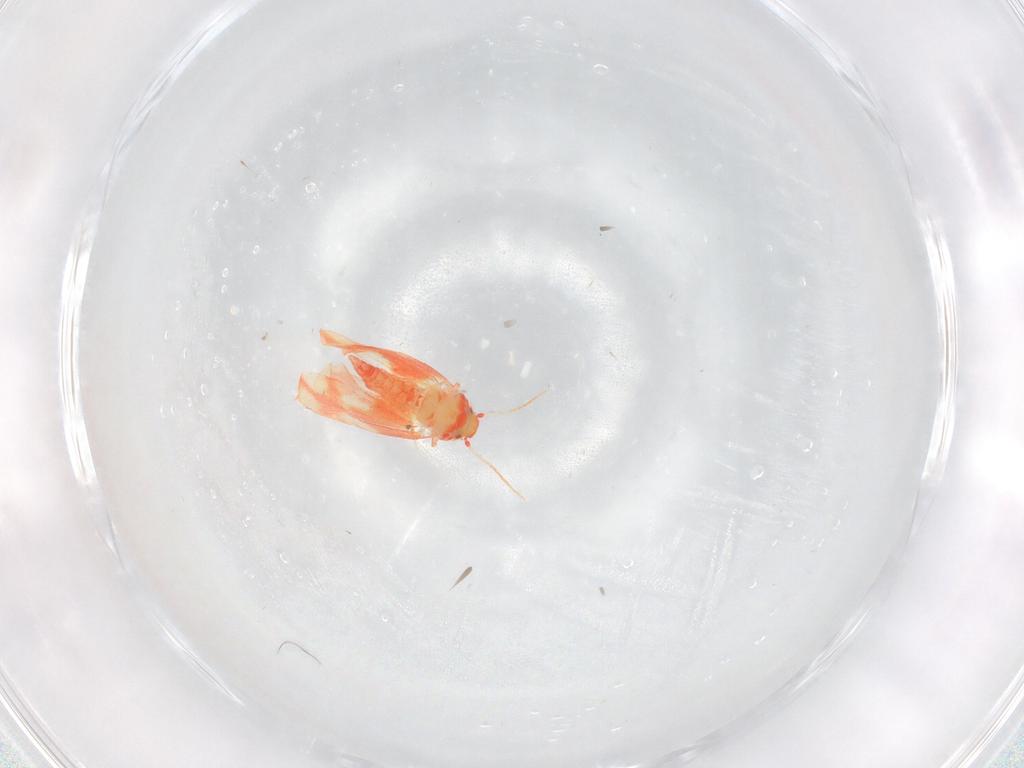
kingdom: Animalia
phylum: Arthropoda
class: Insecta
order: Hemiptera
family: Aleyrodidae
